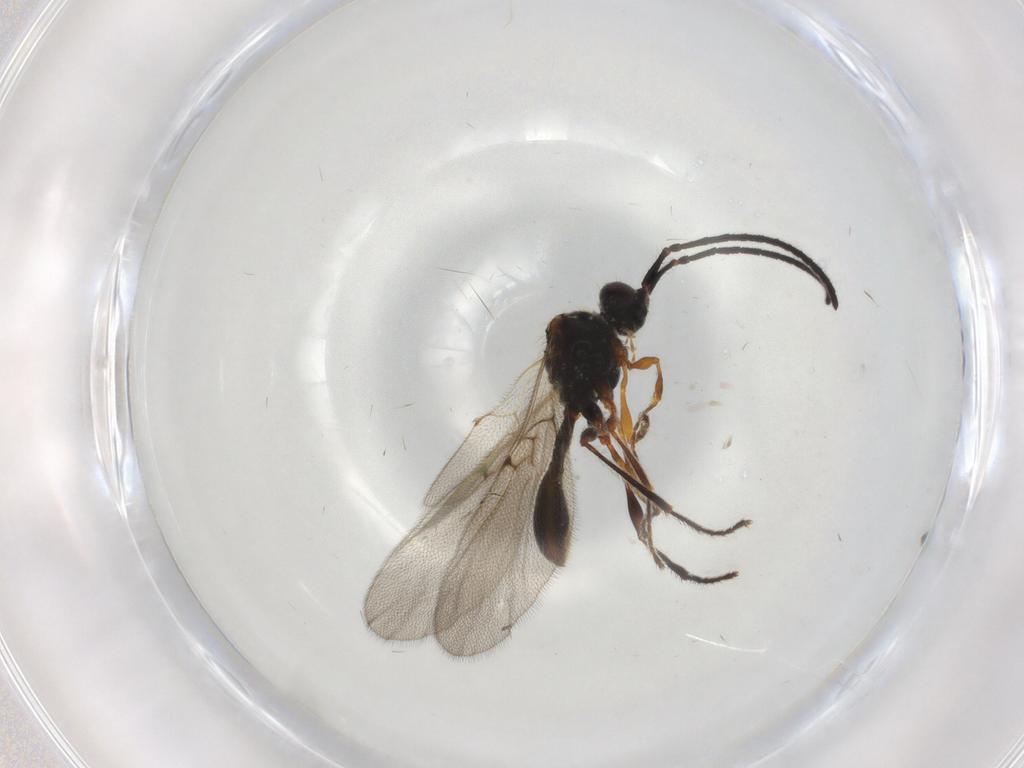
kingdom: Animalia
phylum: Arthropoda
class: Insecta
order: Hymenoptera
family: Diapriidae
